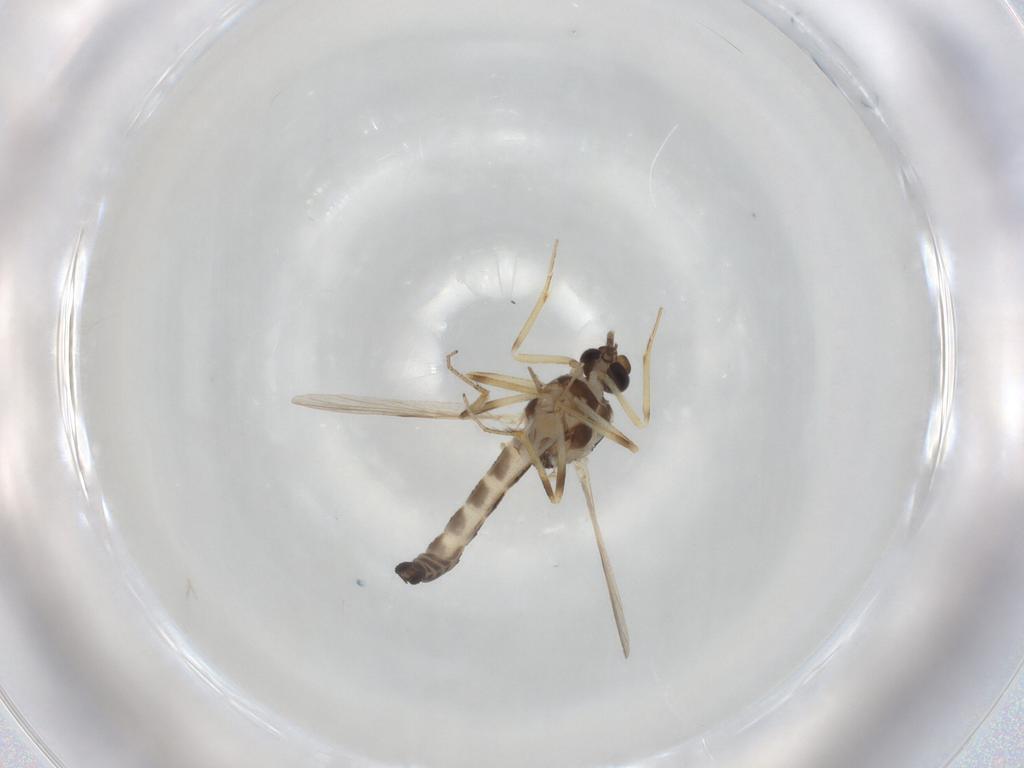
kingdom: Animalia
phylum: Arthropoda
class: Insecta
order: Diptera
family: Ceratopogonidae
